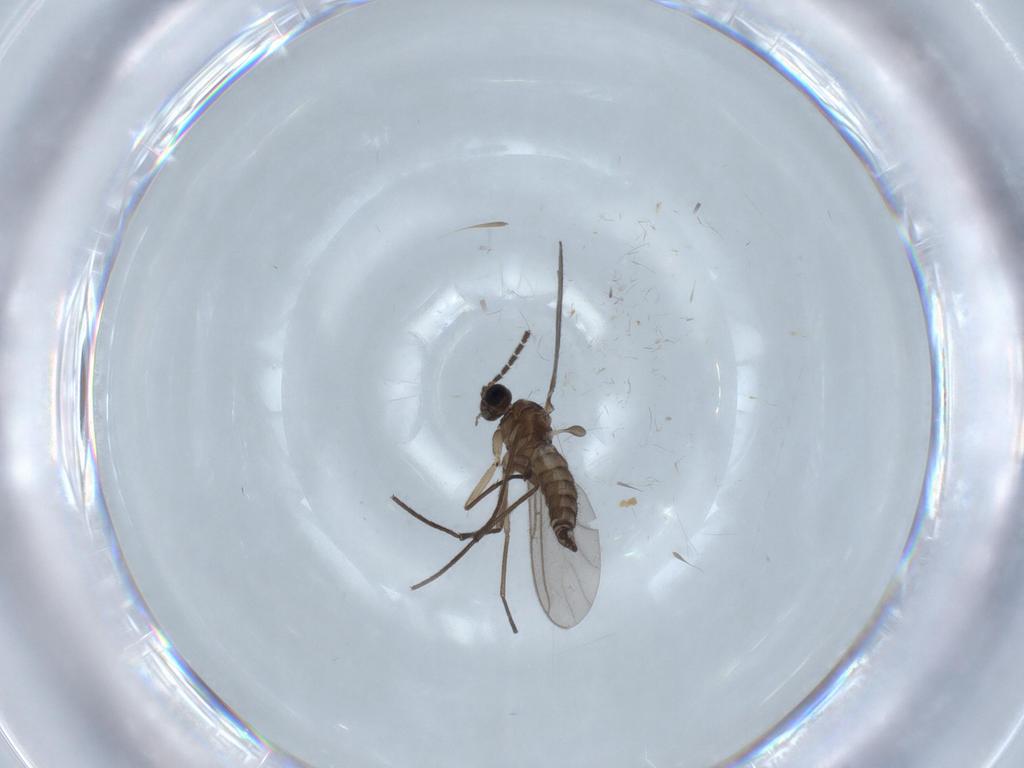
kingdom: Animalia
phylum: Arthropoda
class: Insecta
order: Diptera
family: Sciaridae
